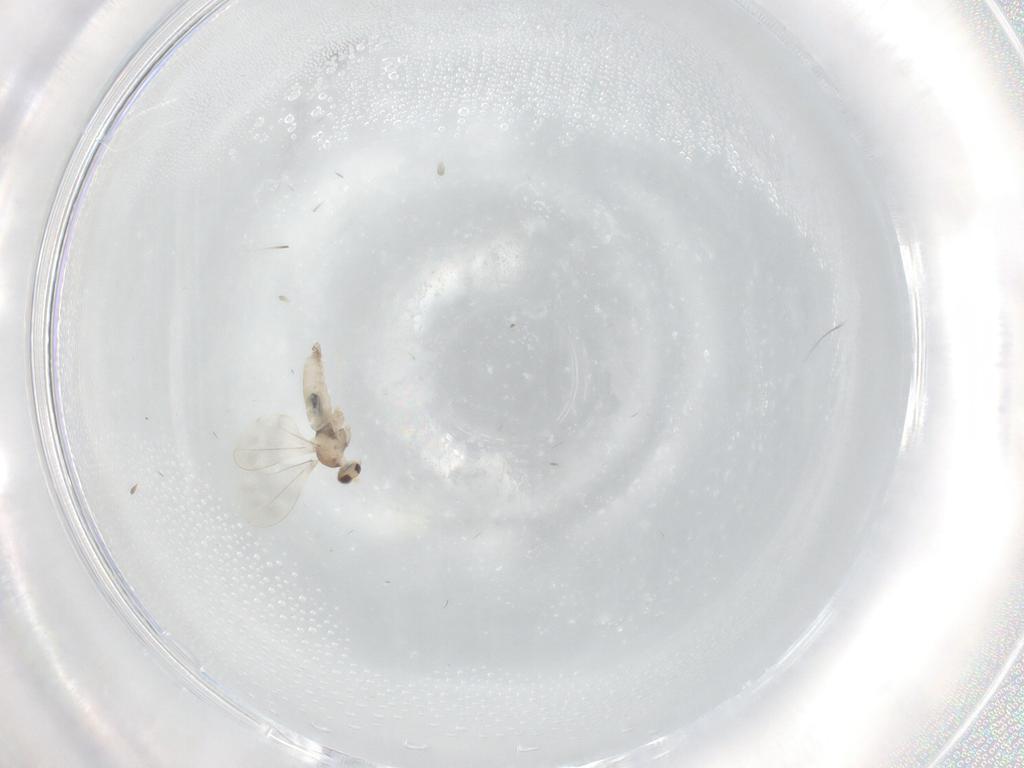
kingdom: Animalia
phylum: Arthropoda
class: Insecta
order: Diptera
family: Cecidomyiidae
